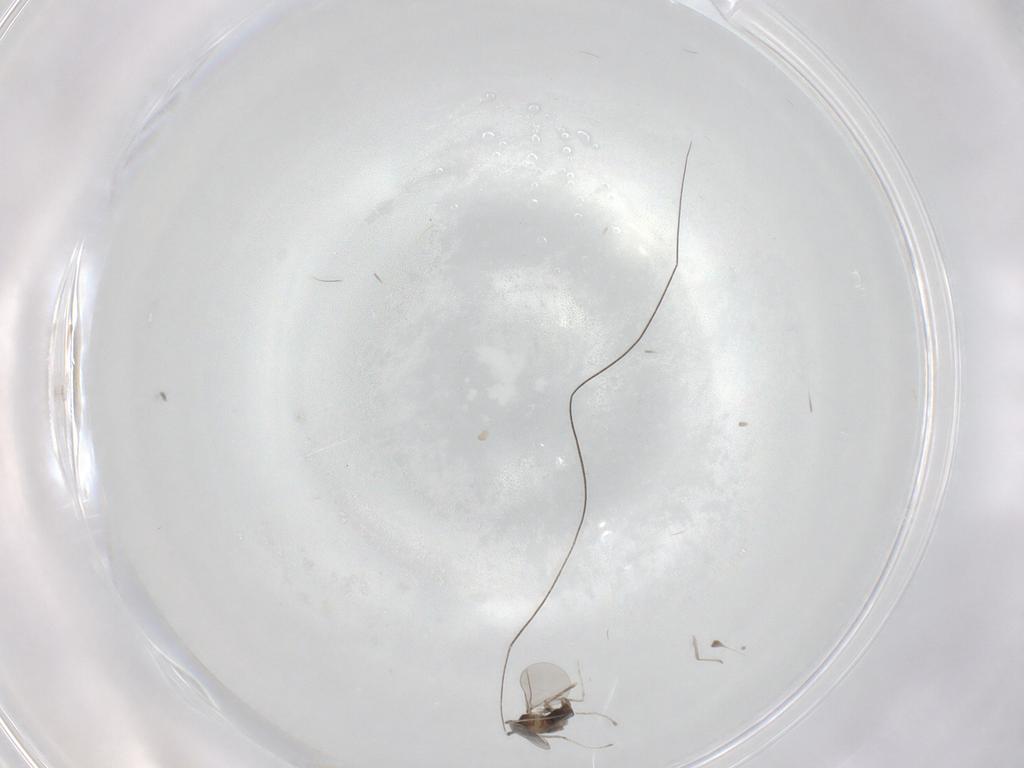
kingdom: Animalia
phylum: Arthropoda
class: Insecta
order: Diptera
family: Cecidomyiidae
